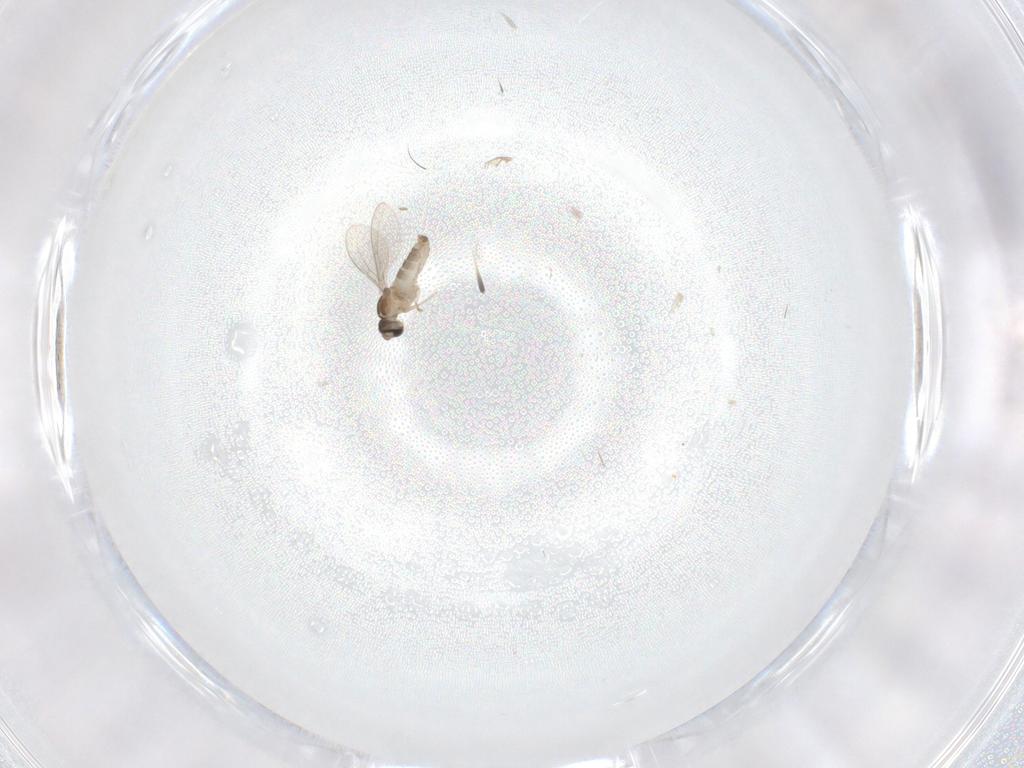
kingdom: Animalia
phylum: Arthropoda
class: Insecta
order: Diptera
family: Cecidomyiidae
